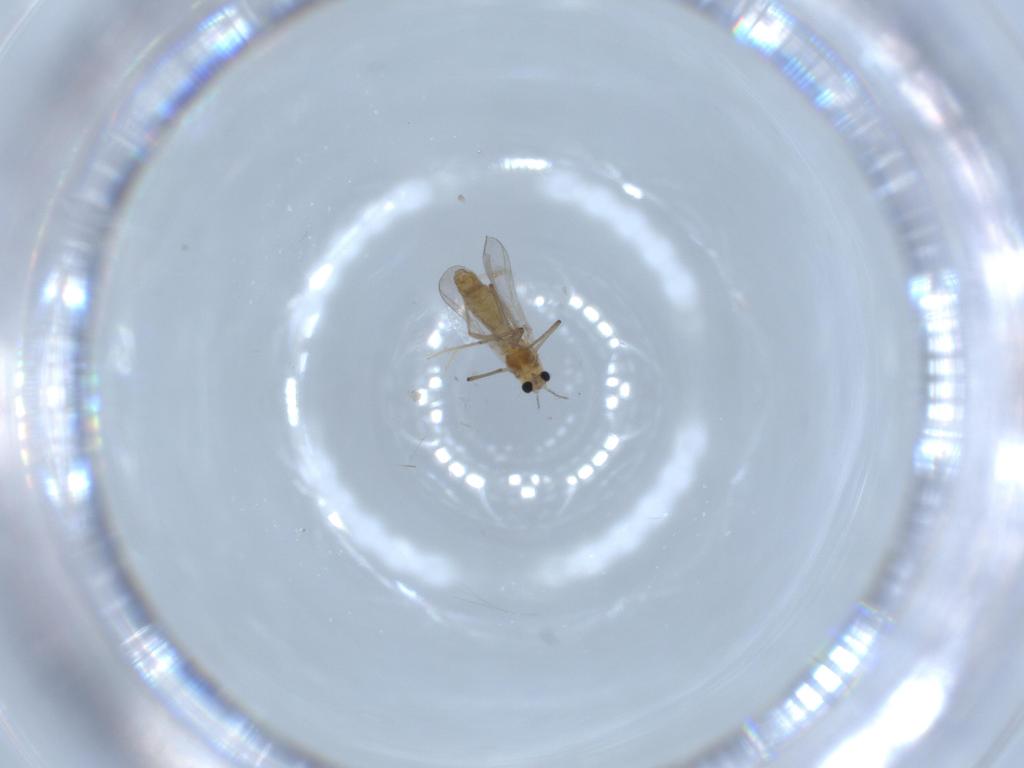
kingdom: Animalia
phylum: Arthropoda
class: Insecta
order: Diptera
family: Chironomidae
